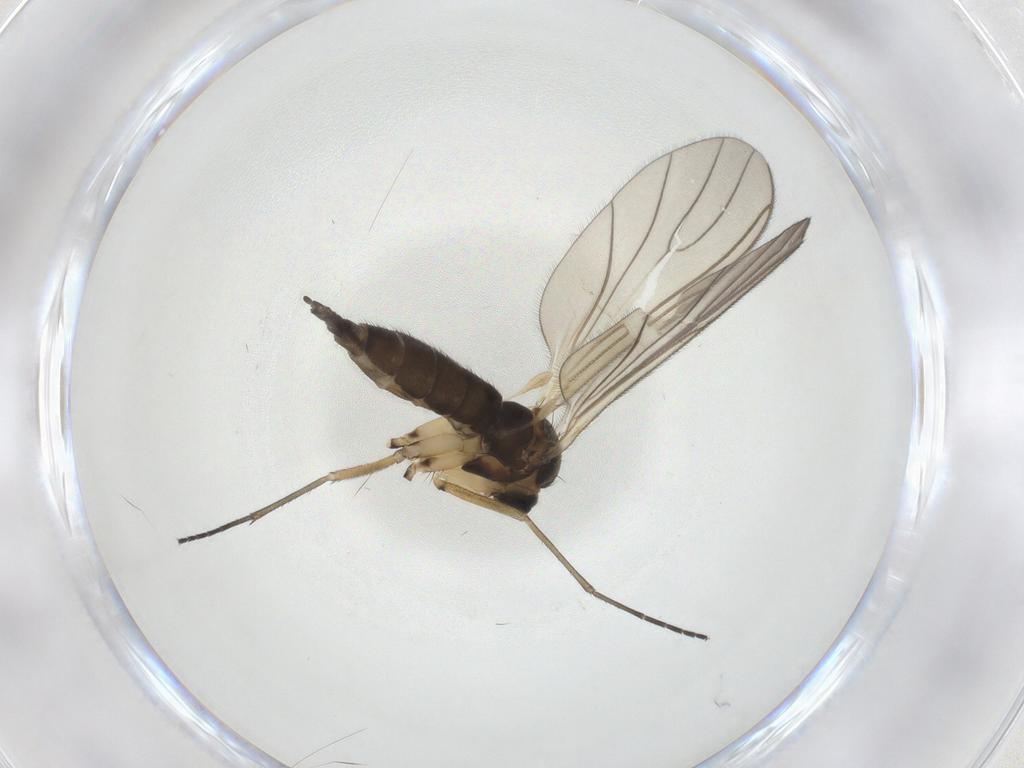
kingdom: Animalia
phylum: Arthropoda
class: Insecta
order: Diptera
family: Sciaridae
